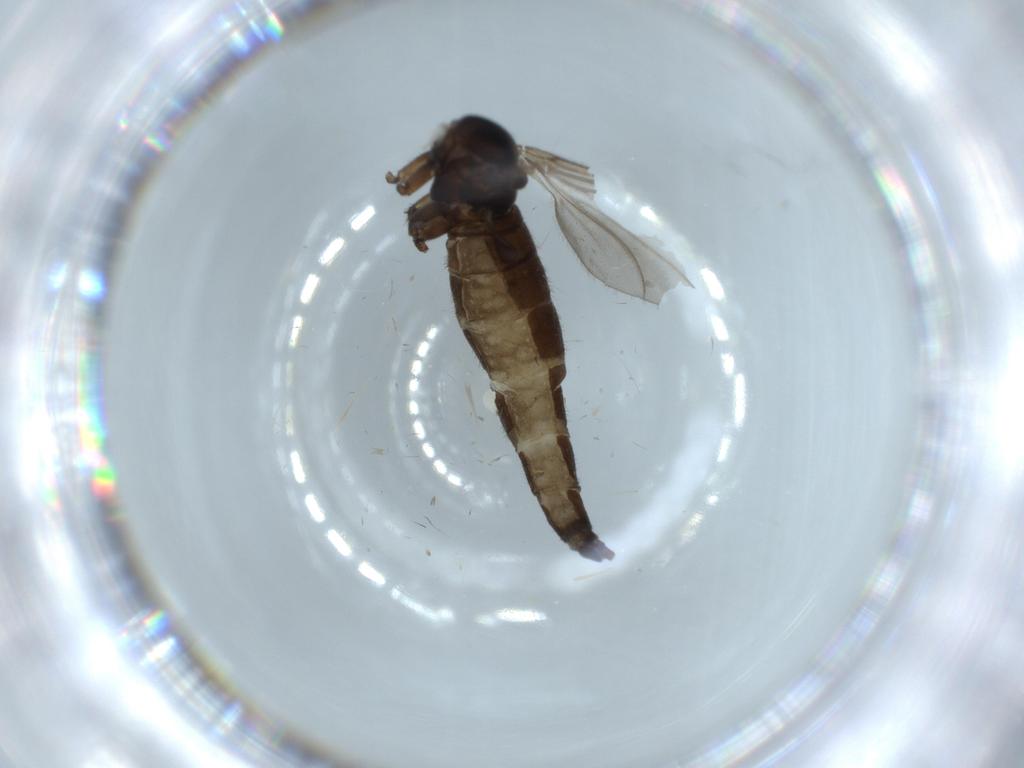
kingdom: Animalia
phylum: Arthropoda
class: Insecta
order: Diptera
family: Sciaridae
